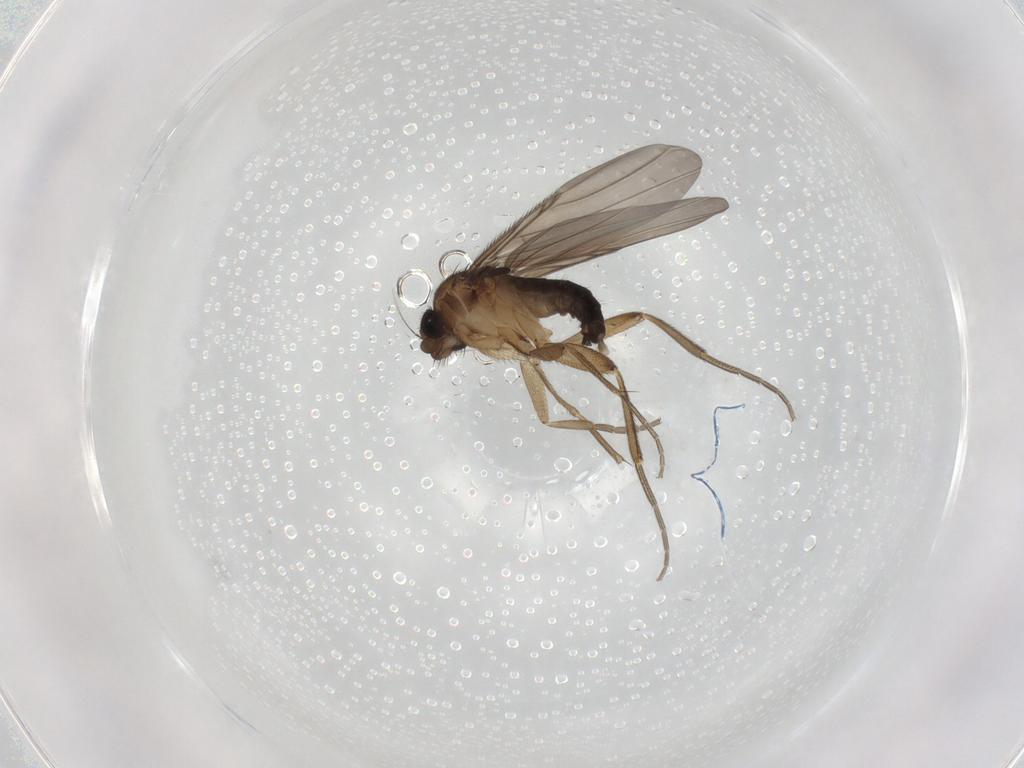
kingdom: Animalia
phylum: Arthropoda
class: Insecta
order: Diptera
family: Phoridae
